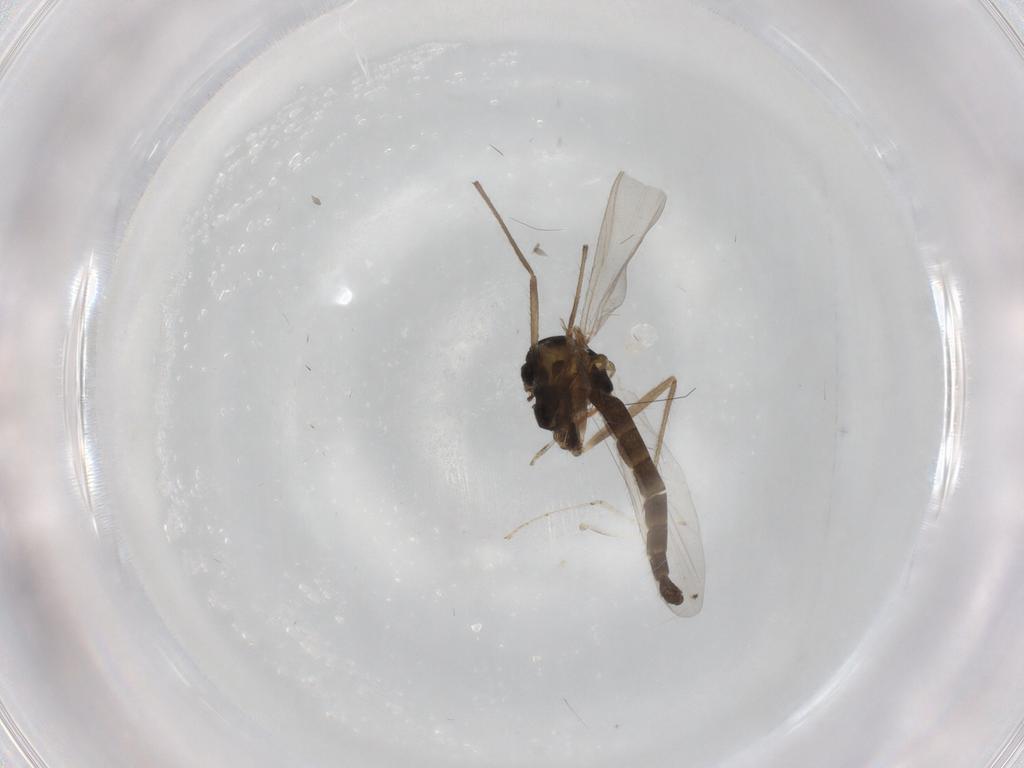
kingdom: Animalia
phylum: Arthropoda
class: Insecta
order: Diptera
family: Chironomidae
